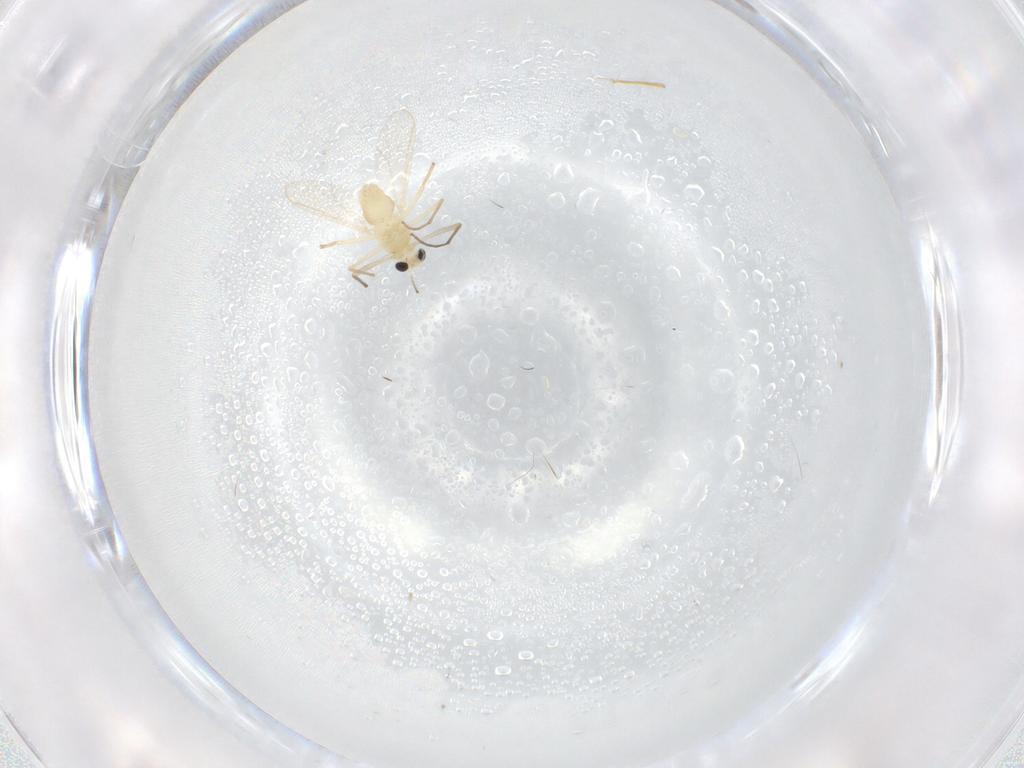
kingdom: Animalia
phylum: Arthropoda
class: Insecta
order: Diptera
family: Chironomidae
